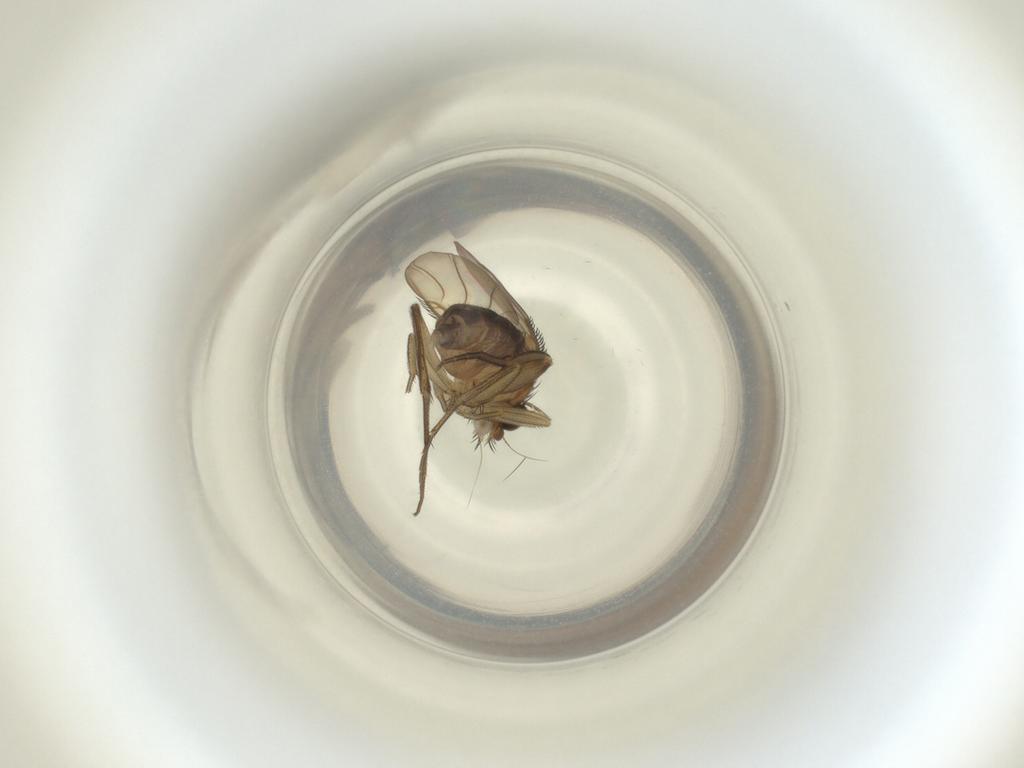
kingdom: Animalia
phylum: Arthropoda
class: Insecta
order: Diptera
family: Phoridae
